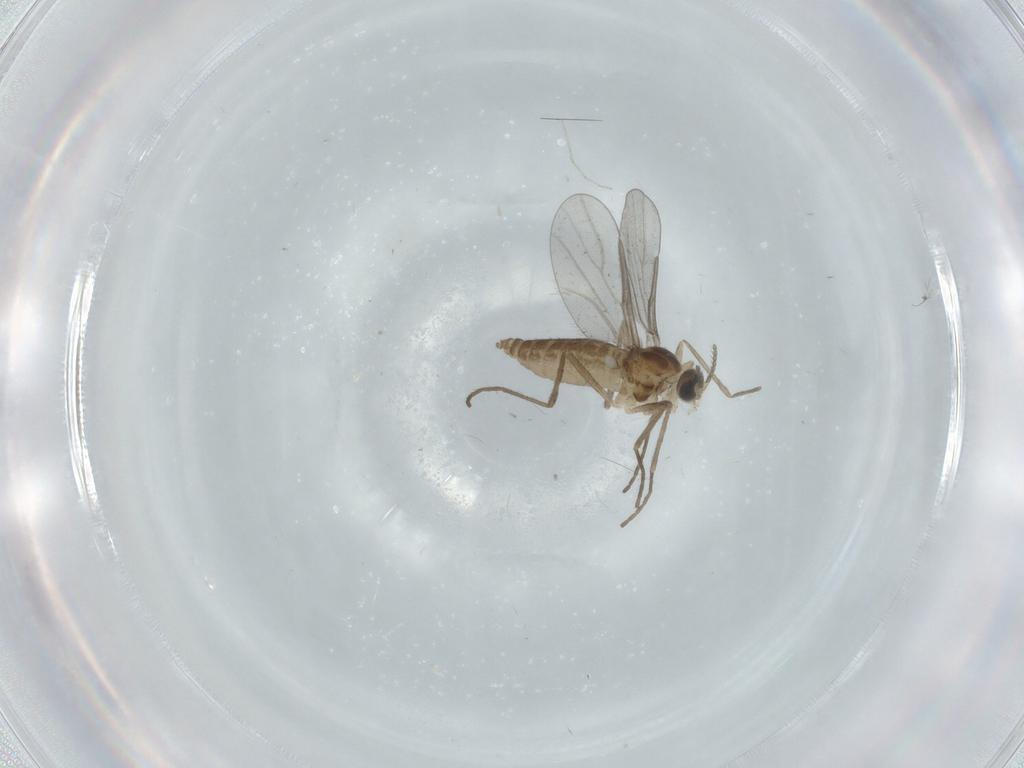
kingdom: Animalia
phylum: Arthropoda
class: Insecta
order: Diptera
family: Cecidomyiidae
